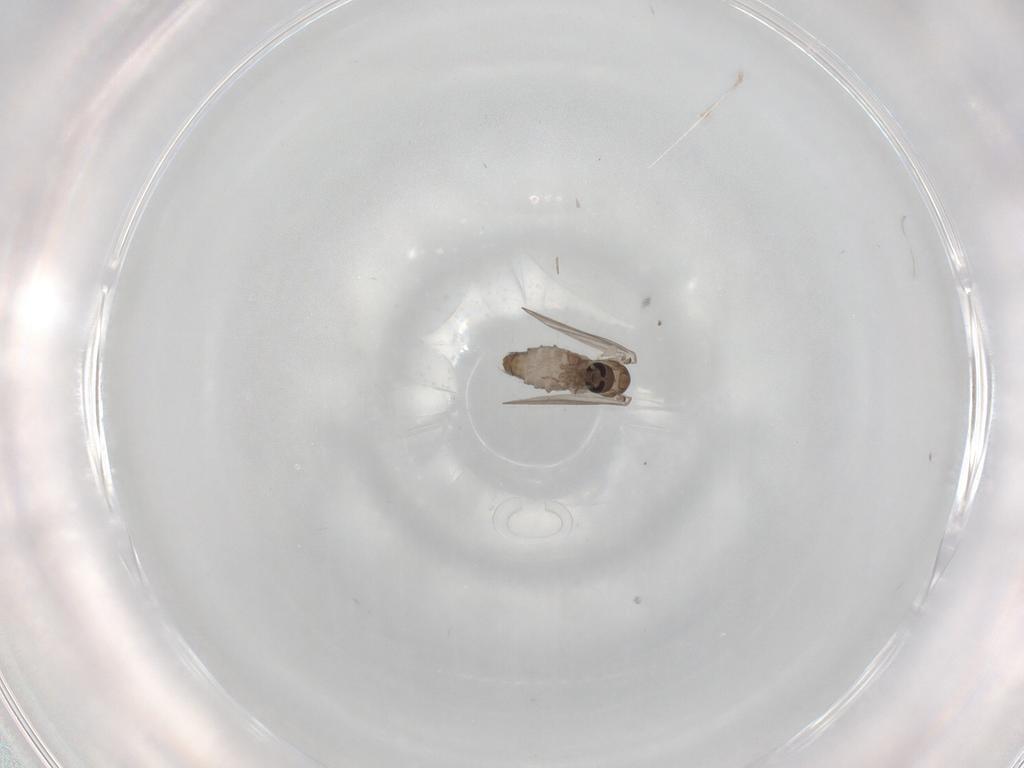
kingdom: Animalia
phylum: Arthropoda
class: Insecta
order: Diptera
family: Psychodidae
